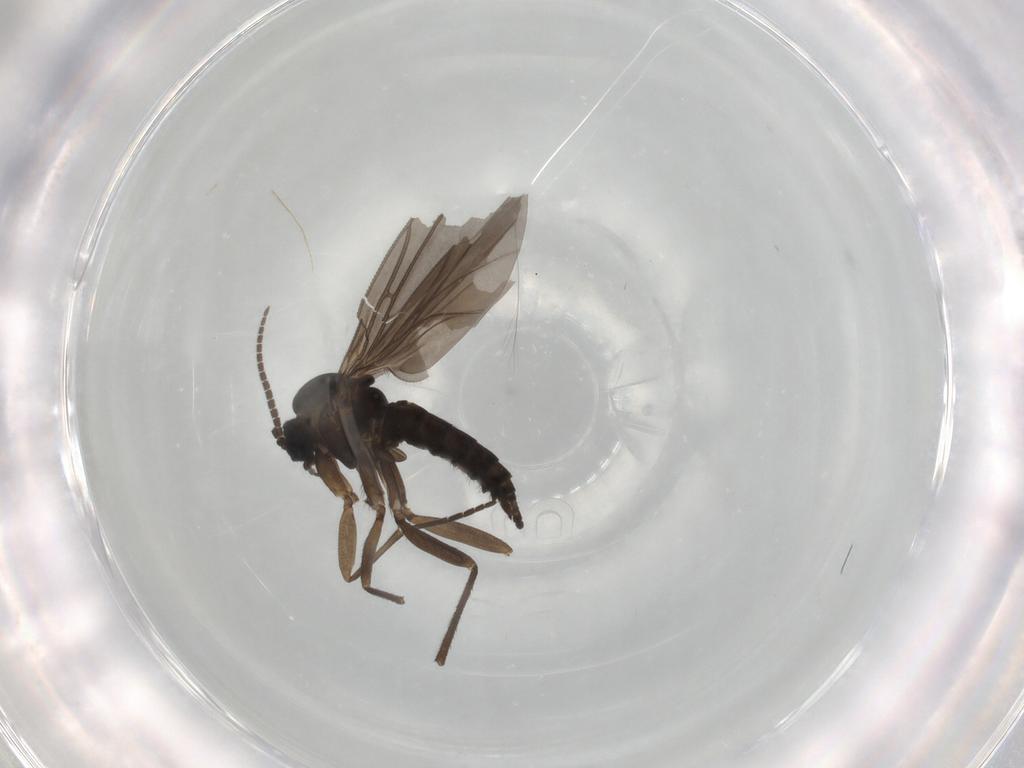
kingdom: Animalia
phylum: Arthropoda
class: Insecta
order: Diptera
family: Sciaridae
